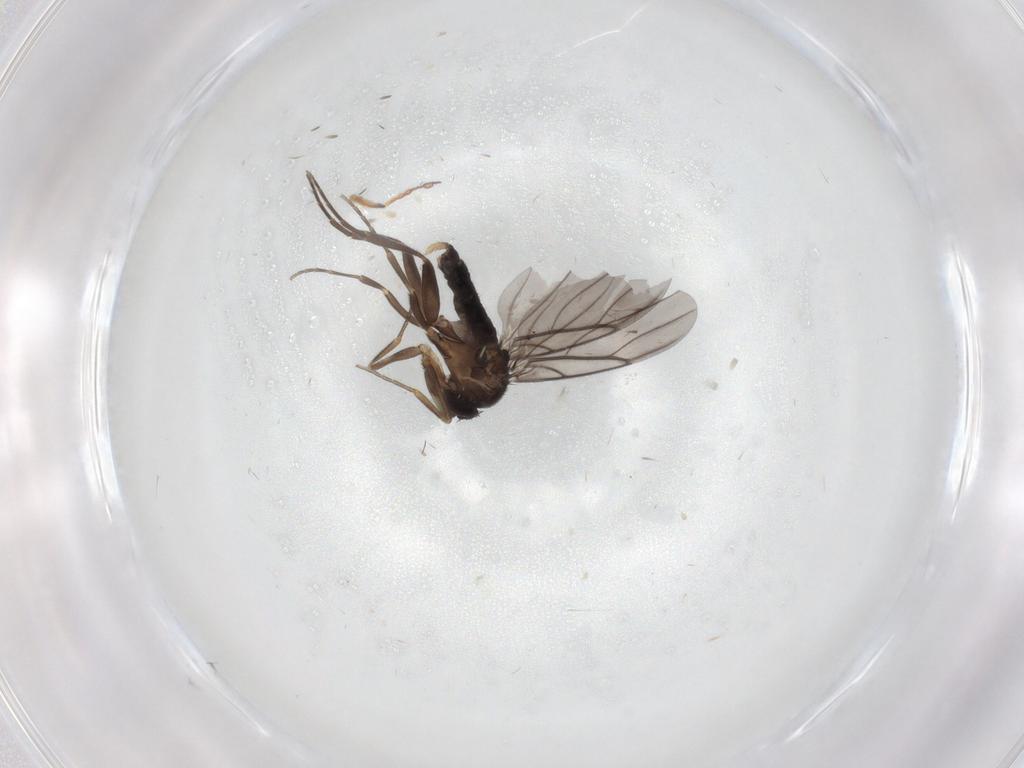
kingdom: Animalia
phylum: Arthropoda
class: Insecta
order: Diptera
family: Phoridae
